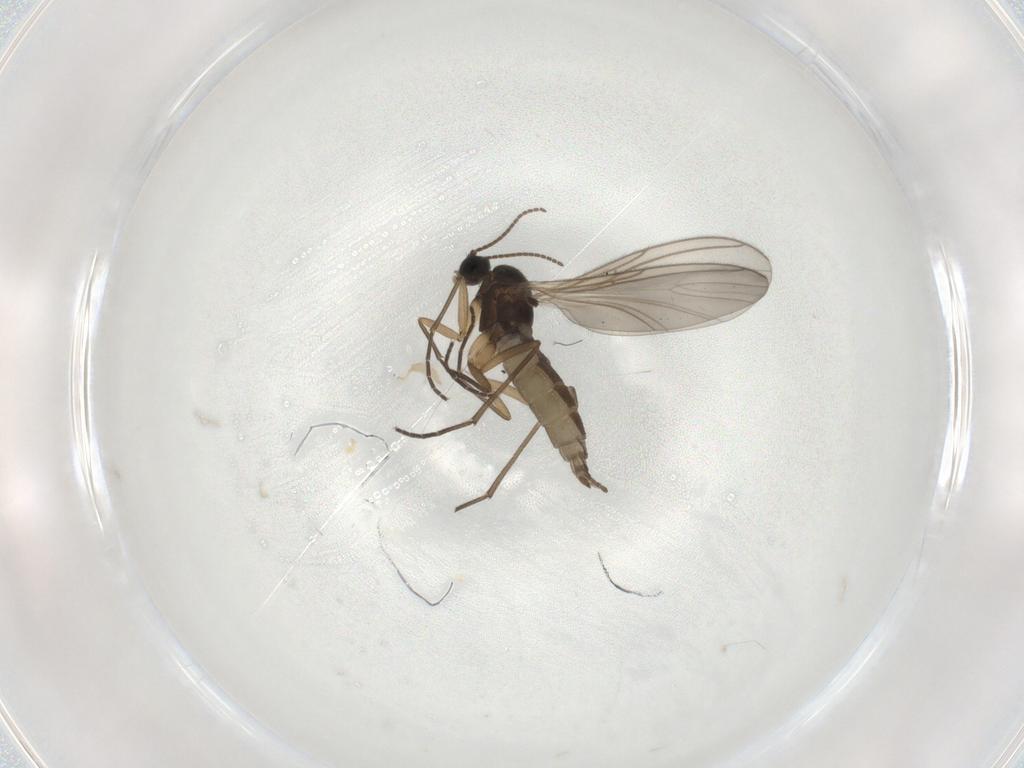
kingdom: Animalia
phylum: Arthropoda
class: Insecta
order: Diptera
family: Sciaridae
